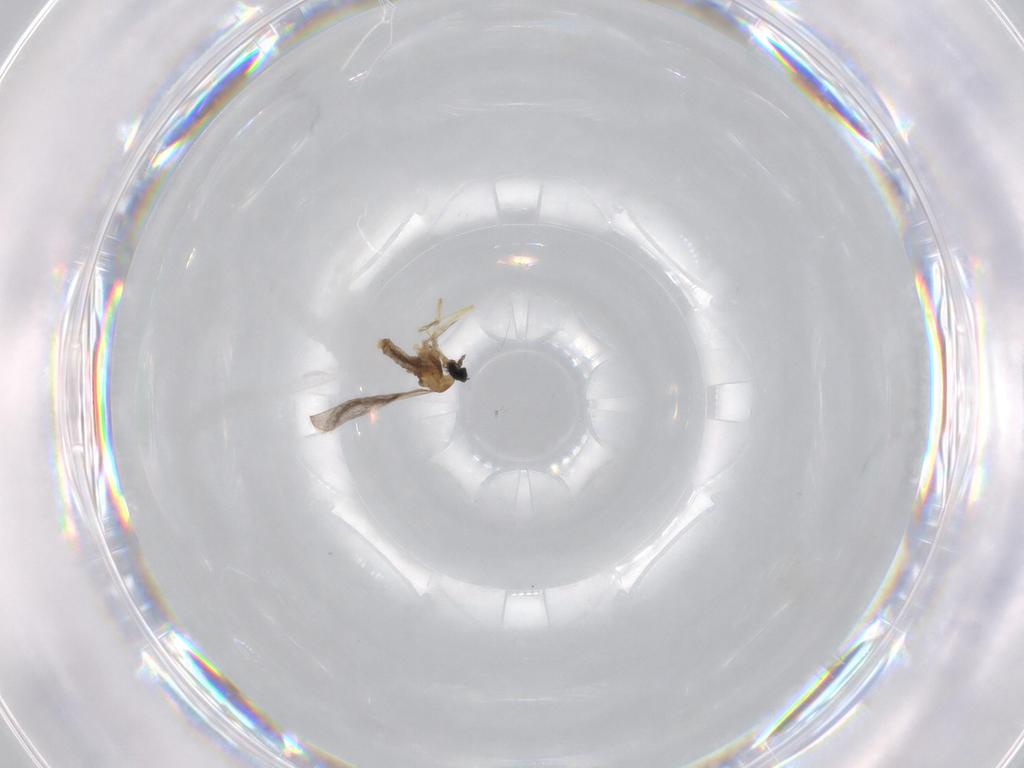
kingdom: Animalia
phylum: Arthropoda
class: Insecta
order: Diptera
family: Cecidomyiidae
